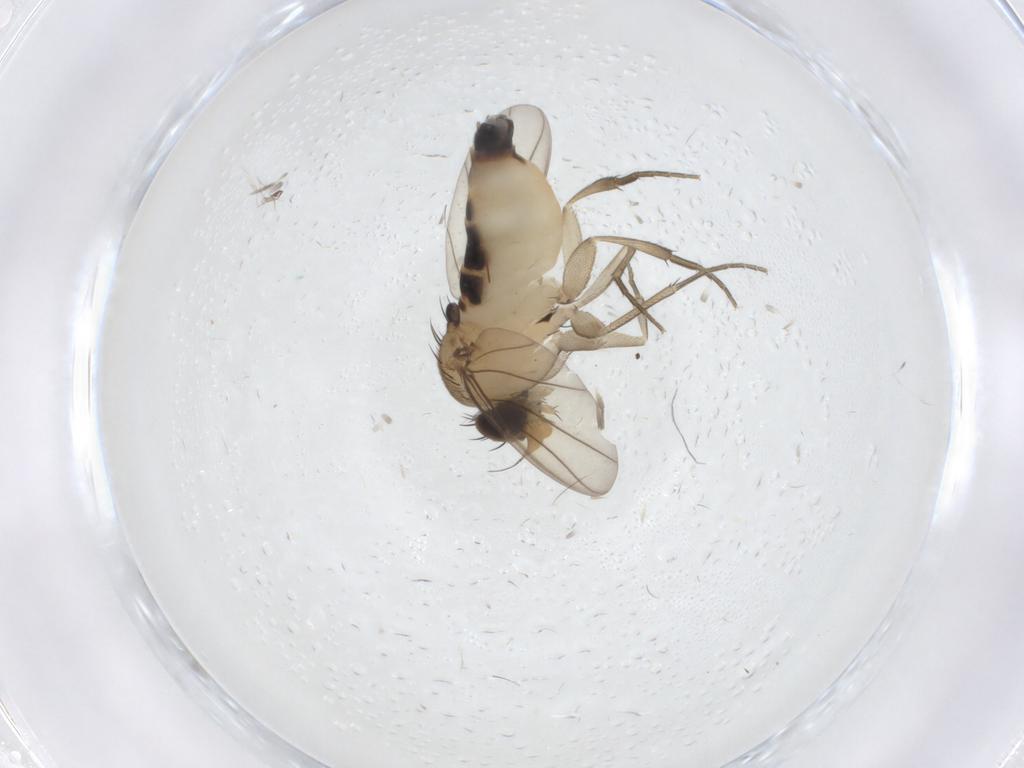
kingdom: Animalia
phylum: Arthropoda
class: Insecta
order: Diptera
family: Phoridae
